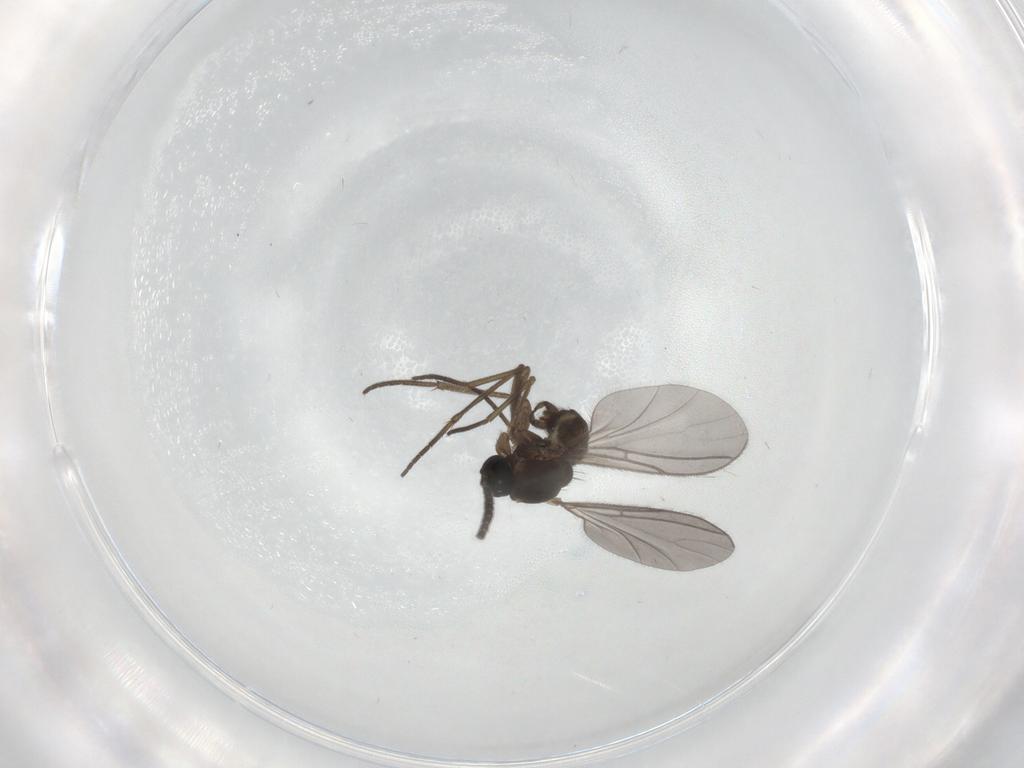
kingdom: Animalia
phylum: Arthropoda
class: Insecta
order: Diptera
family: Sciaridae
